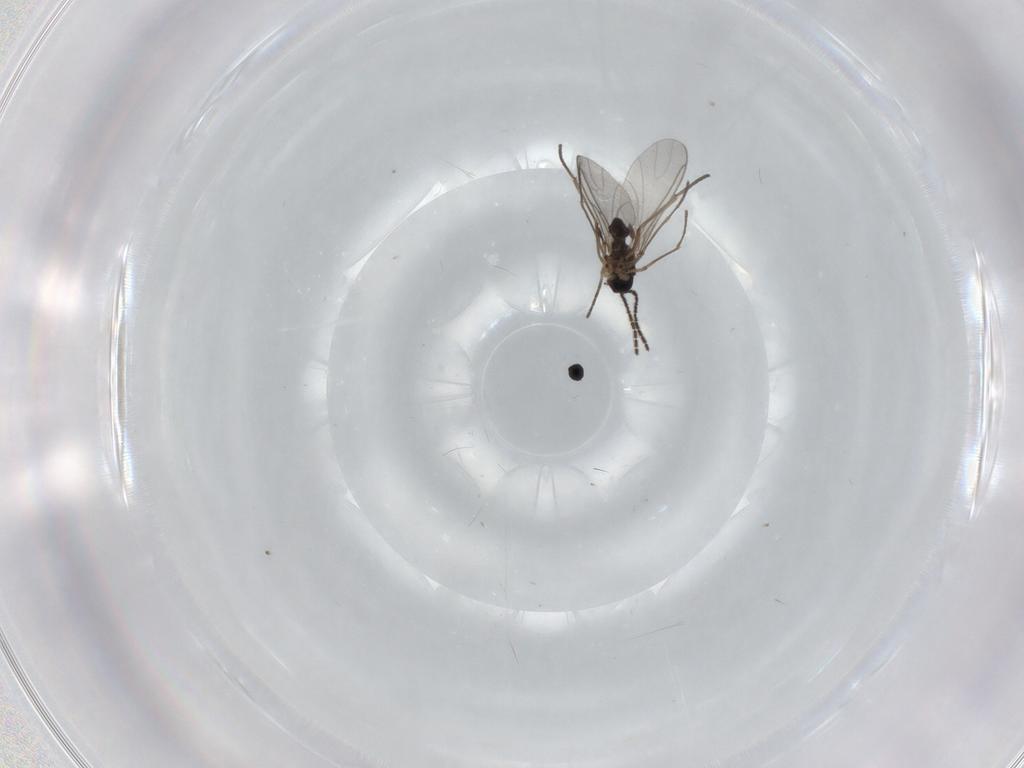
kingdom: Animalia
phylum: Arthropoda
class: Insecta
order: Diptera
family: Sciaridae
